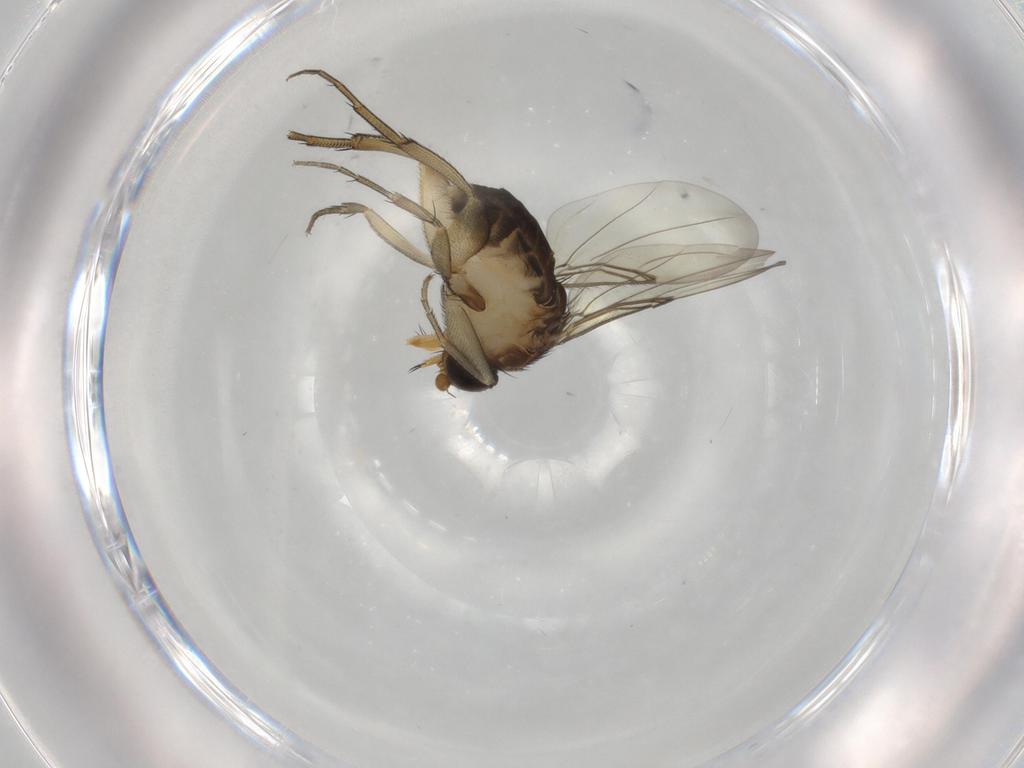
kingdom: Animalia
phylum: Arthropoda
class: Insecta
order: Diptera
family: Phoridae
